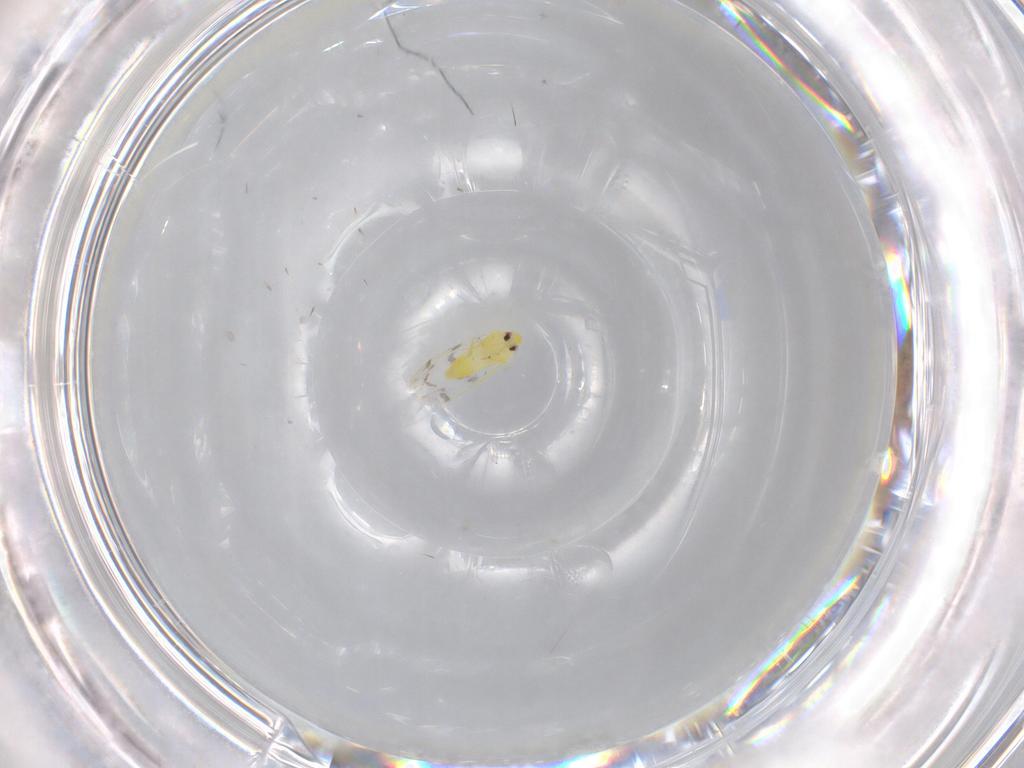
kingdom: Animalia
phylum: Arthropoda
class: Insecta
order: Hemiptera
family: Aleyrodidae
